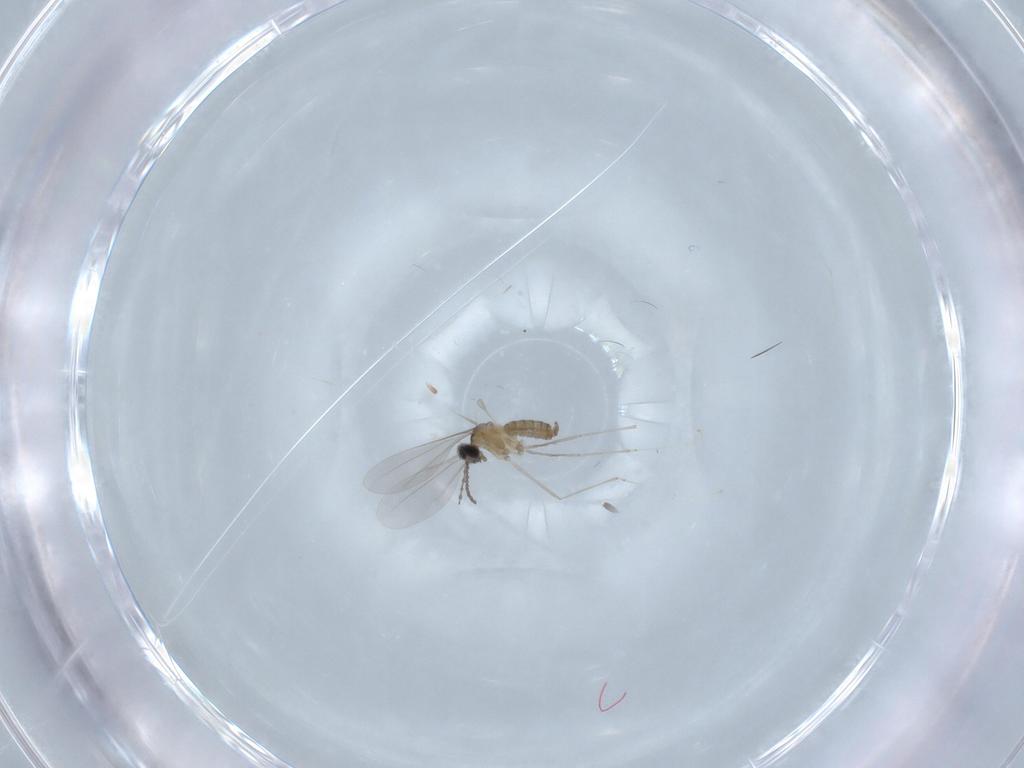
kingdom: Animalia
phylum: Arthropoda
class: Insecta
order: Diptera
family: Cecidomyiidae
